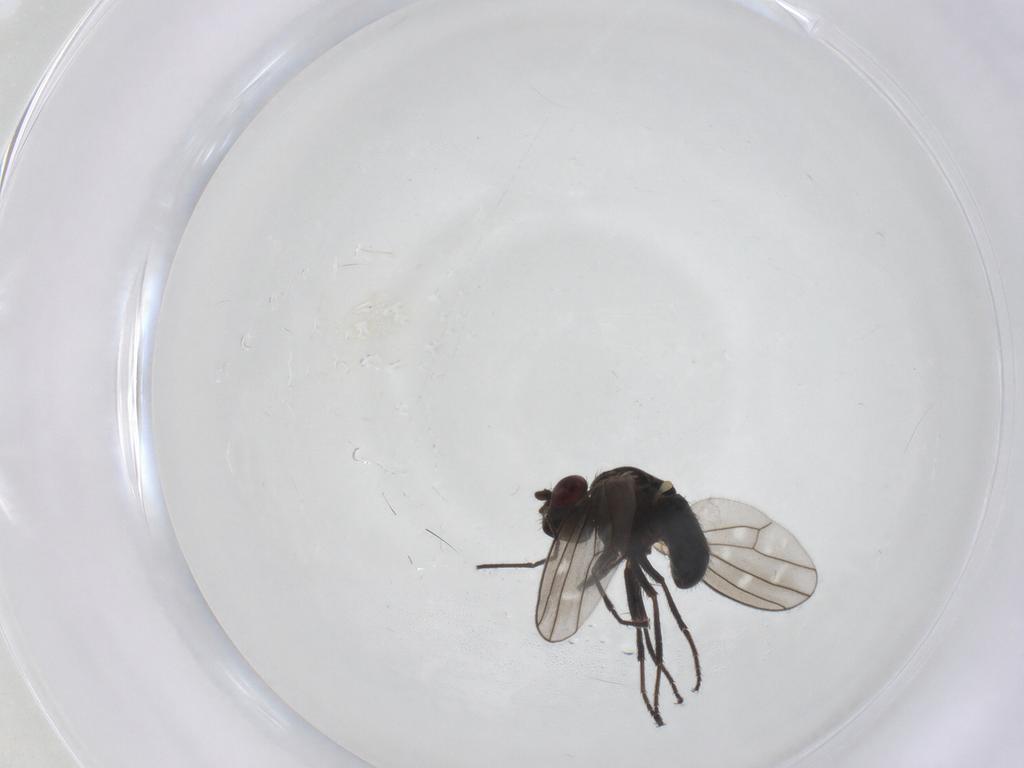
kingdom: Animalia
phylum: Arthropoda
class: Insecta
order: Diptera
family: Ephydridae
